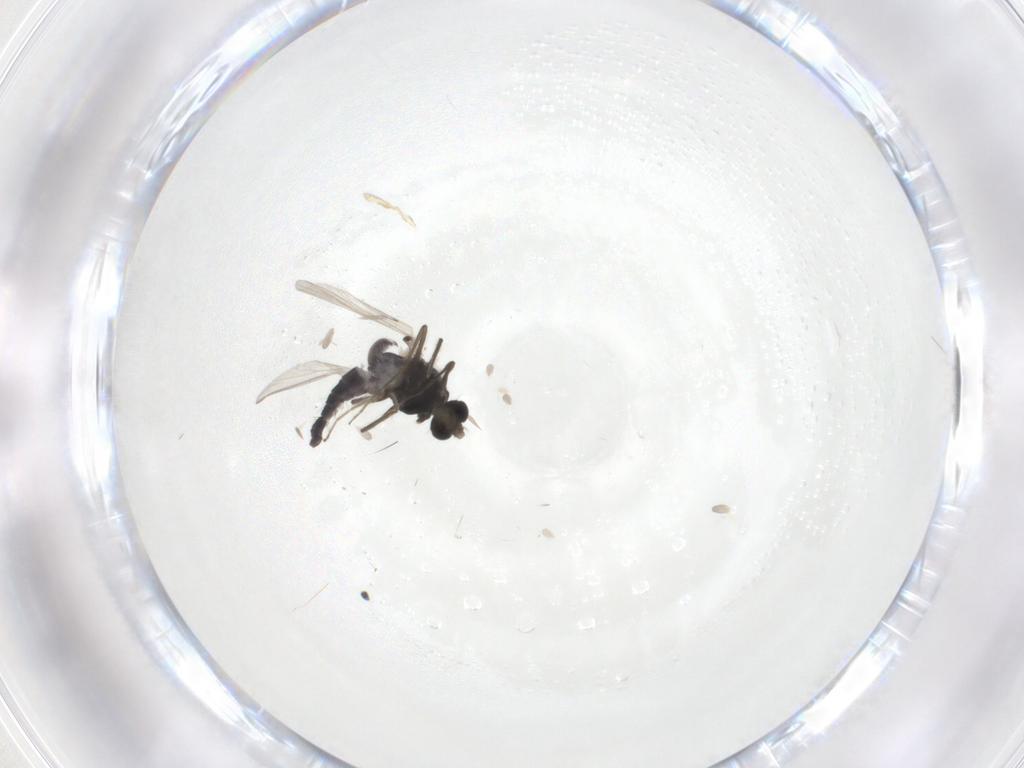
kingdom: Animalia
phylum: Arthropoda
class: Insecta
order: Diptera
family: Chironomidae
